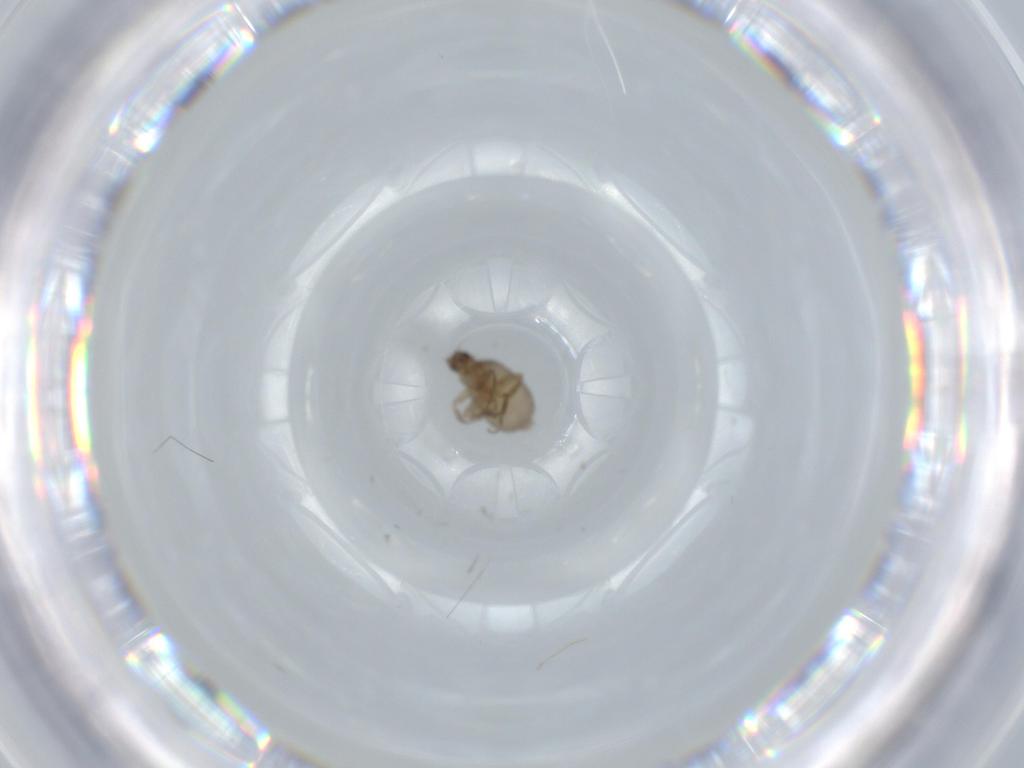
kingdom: Animalia
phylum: Arthropoda
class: Insecta
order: Diptera
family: Phoridae
